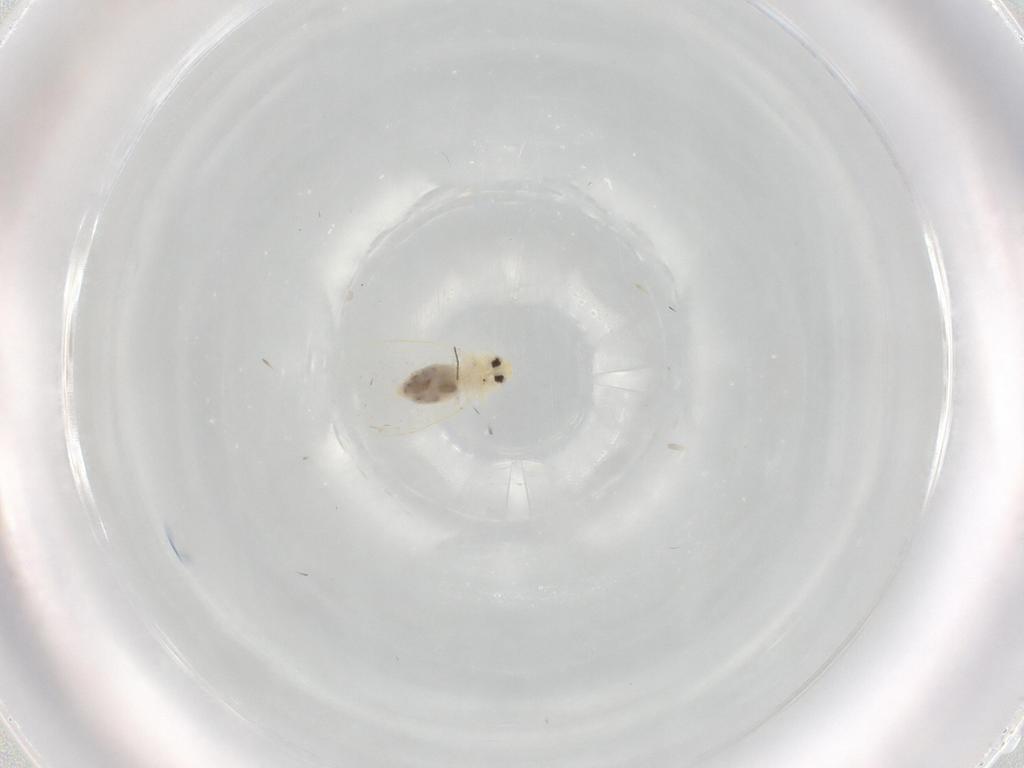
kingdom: Animalia
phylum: Arthropoda
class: Insecta
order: Hemiptera
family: Aleyrodidae
